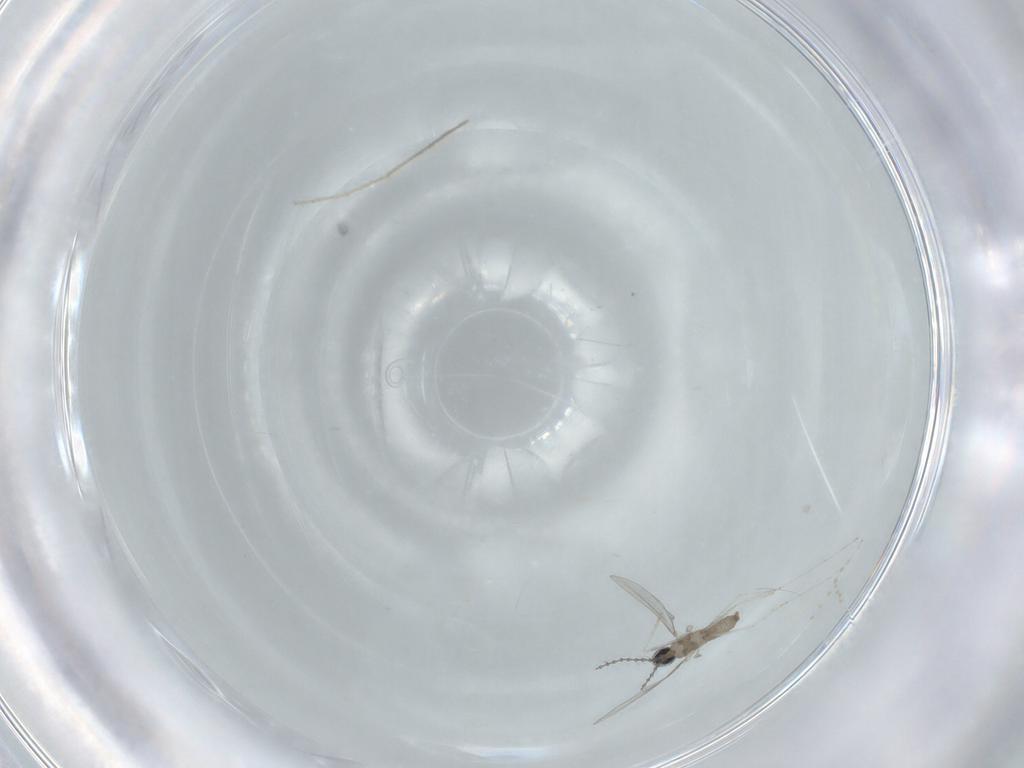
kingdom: Animalia
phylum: Arthropoda
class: Insecta
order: Diptera
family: Cecidomyiidae
